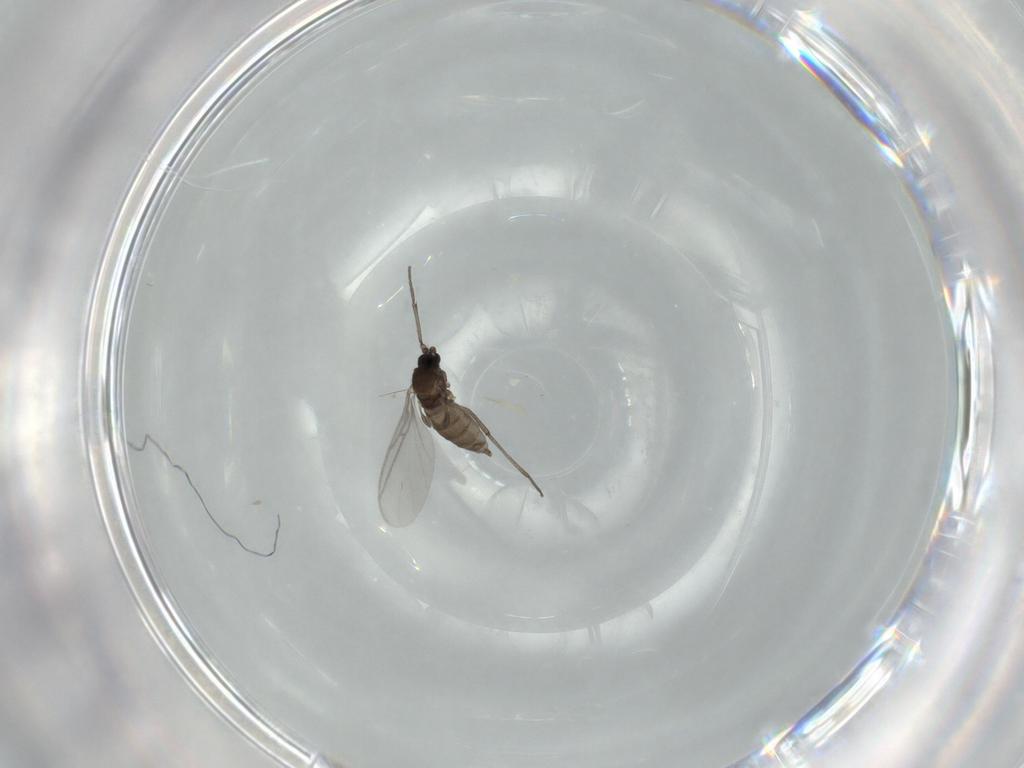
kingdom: Animalia
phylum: Arthropoda
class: Insecta
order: Diptera
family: Sciaridae
